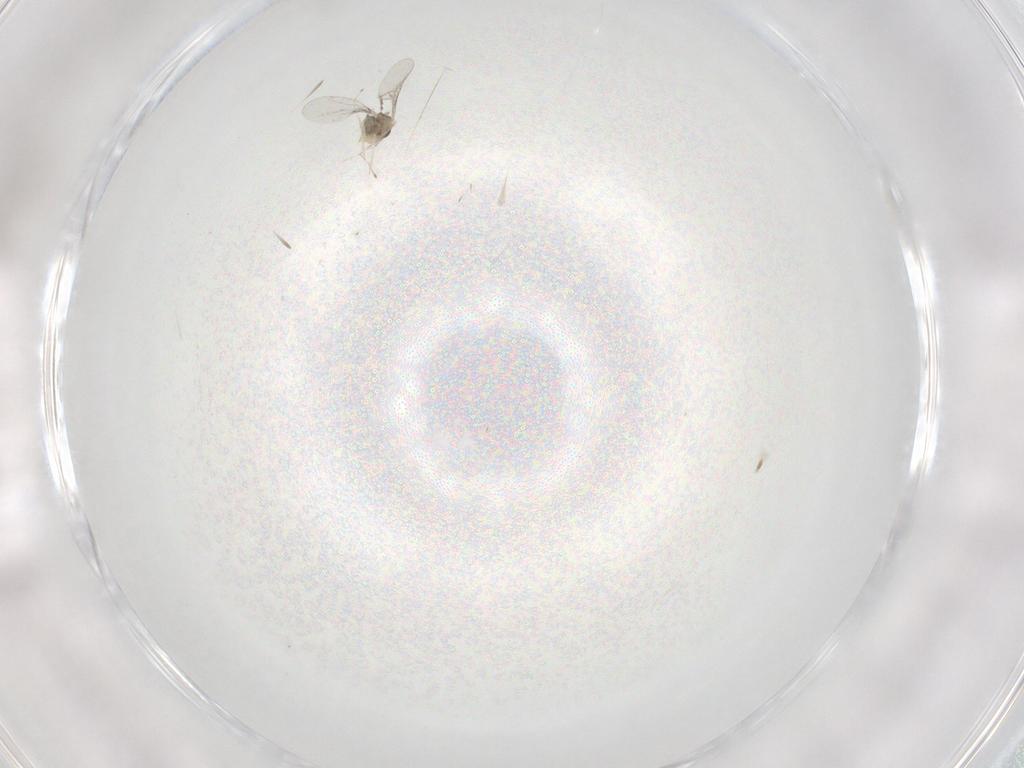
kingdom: Animalia
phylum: Arthropoda
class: Insecta
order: Diptera
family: Cecidomyiidae
